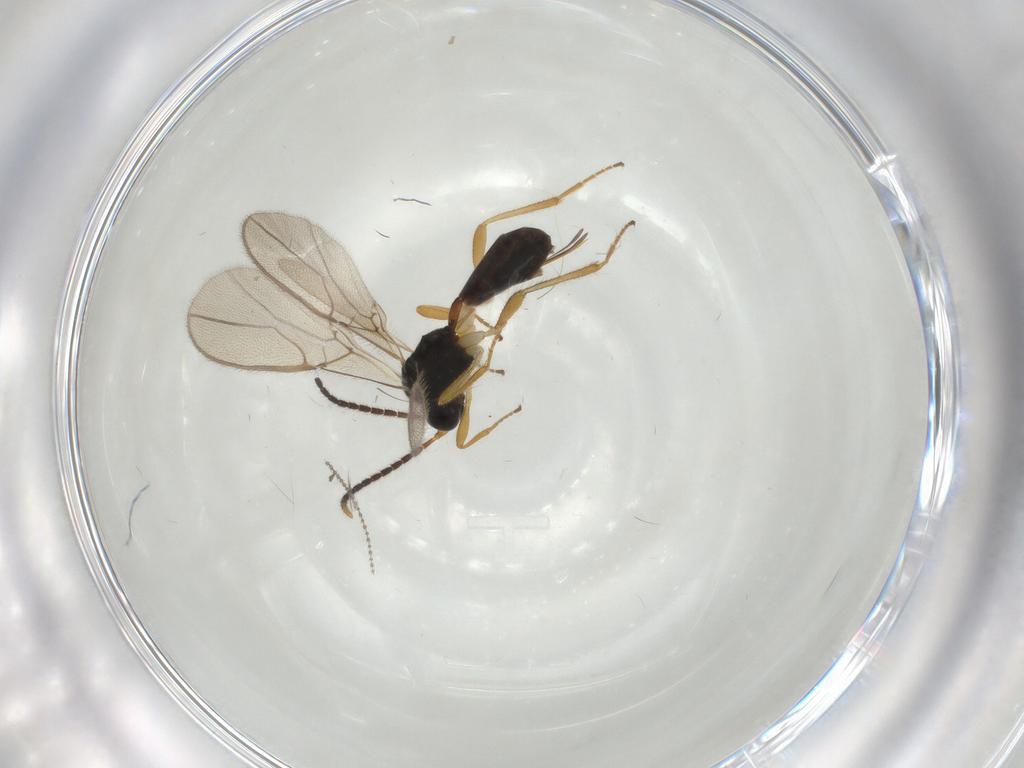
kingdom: Animalia
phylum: Arthropoda
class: Insecta
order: Hymenoptera
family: Braconidae
